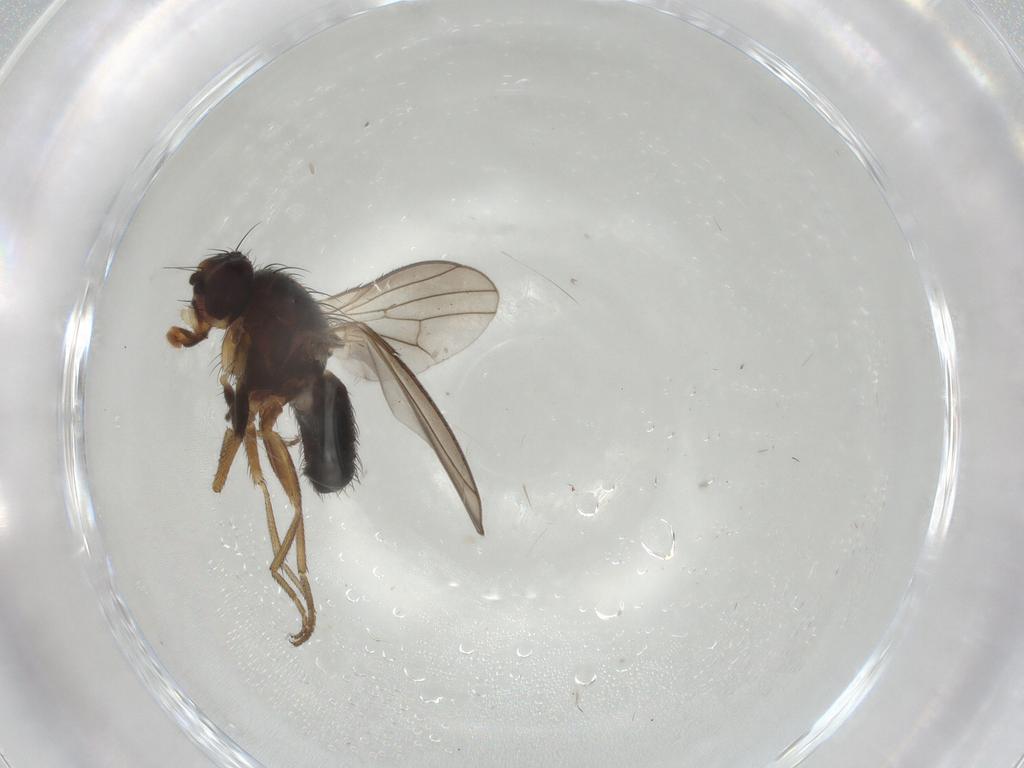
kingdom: Animalia
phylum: Arthropoda
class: Insecta
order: Diptera
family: Heleomyzidae
